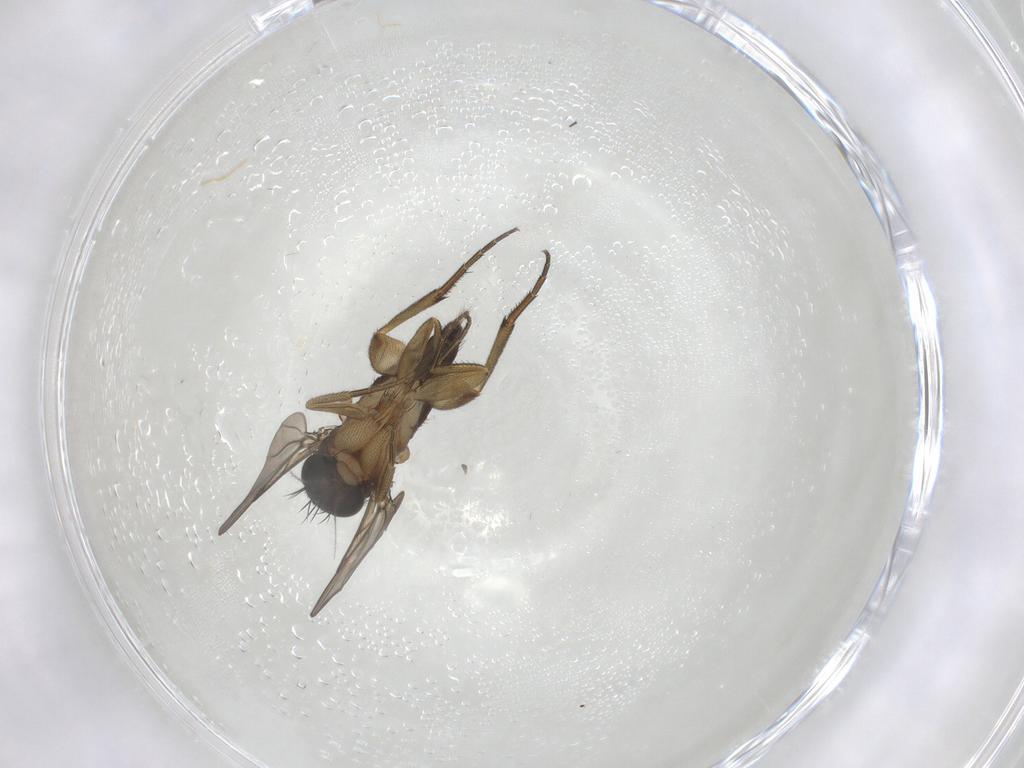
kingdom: Animalia
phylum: Arthropoda
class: Insecta
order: Diptera
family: Phoridae
